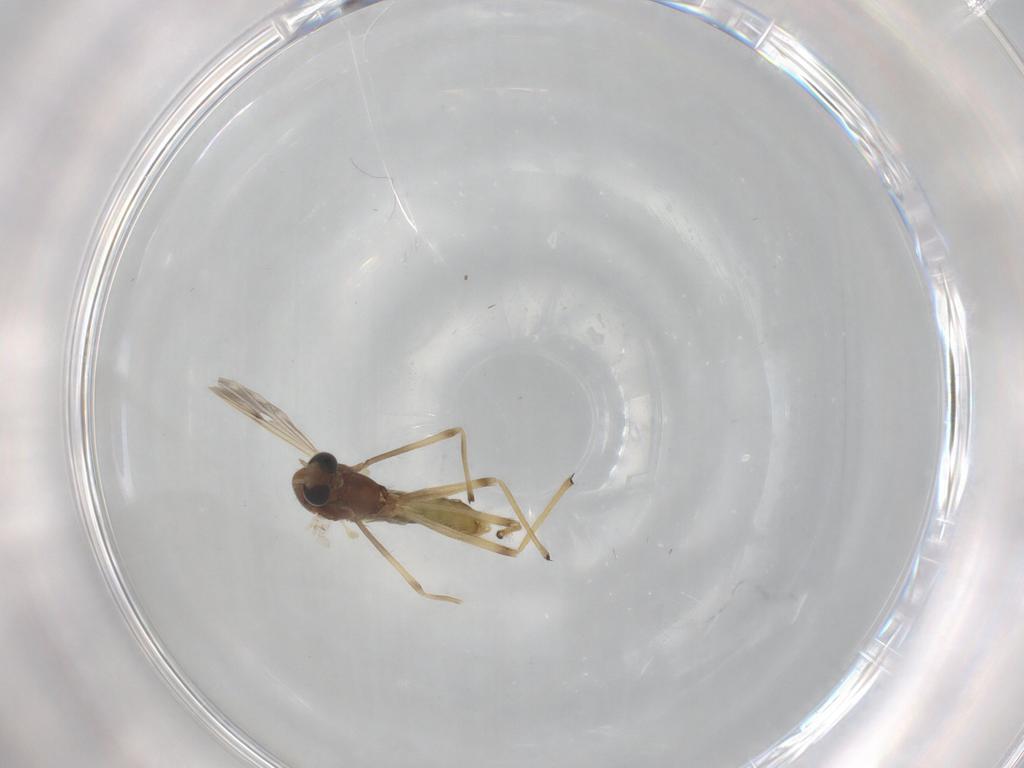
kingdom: Animalia
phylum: Arthropoda
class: Insecta
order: Diptera
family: Chironomidae
